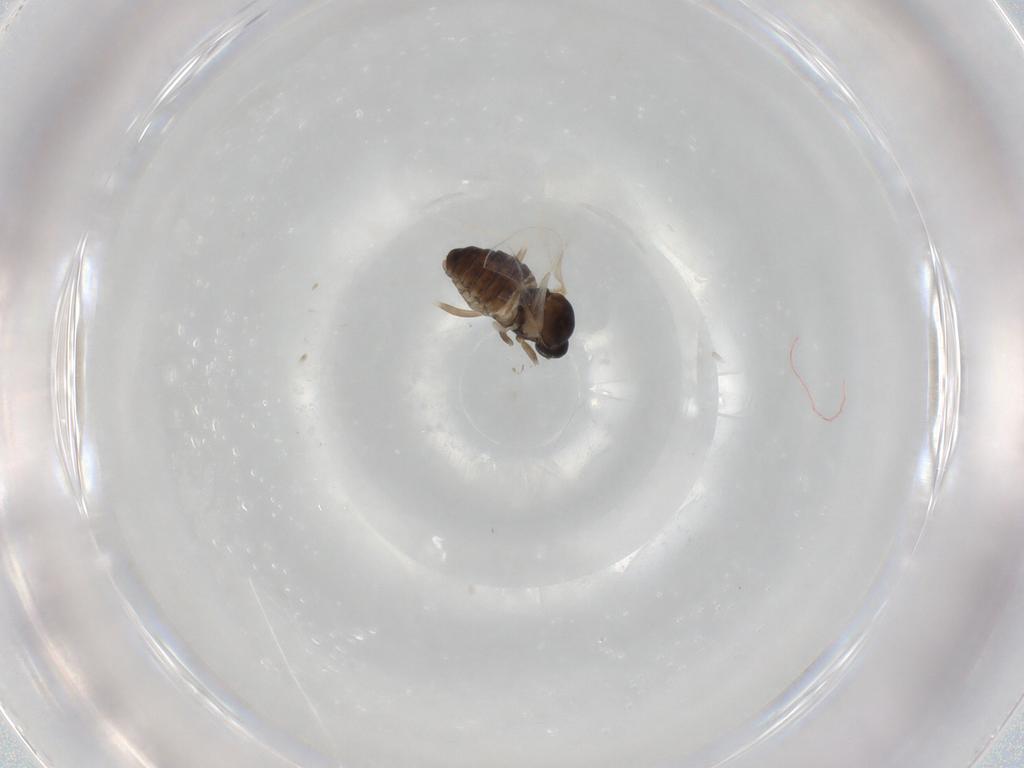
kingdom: Animalia
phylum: Arthropoda
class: Insecta
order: Diptera
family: Cecidomyiidae
